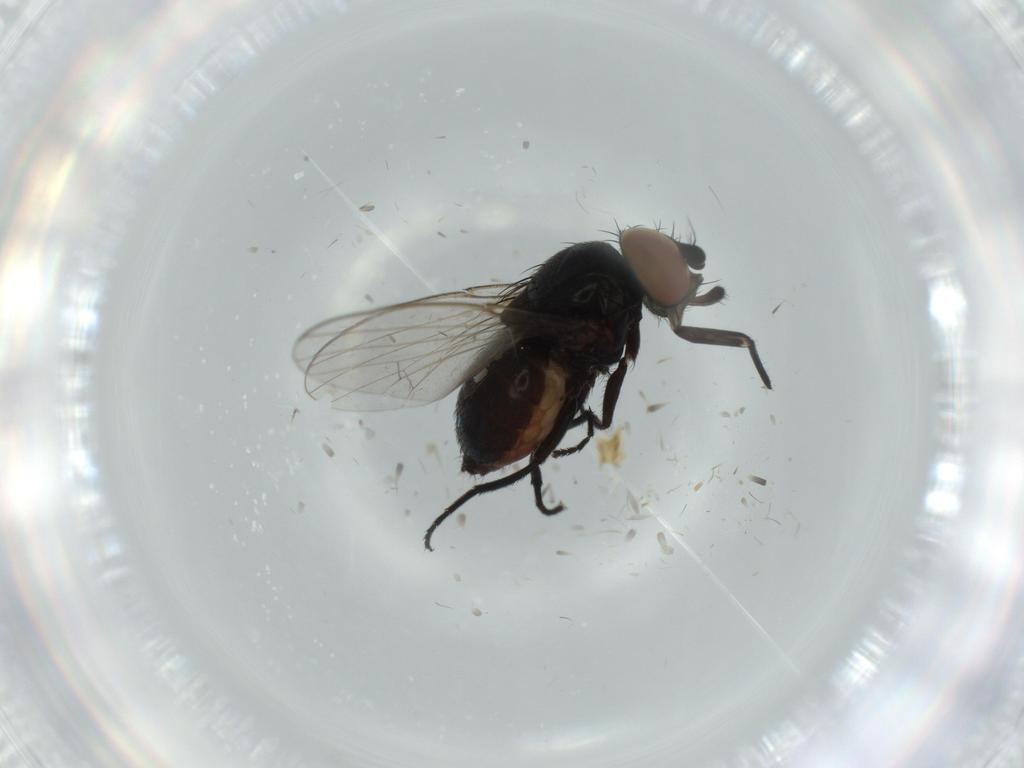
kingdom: Animalia
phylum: Arthropoda
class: Insecta
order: Diptera
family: Milichiidae
